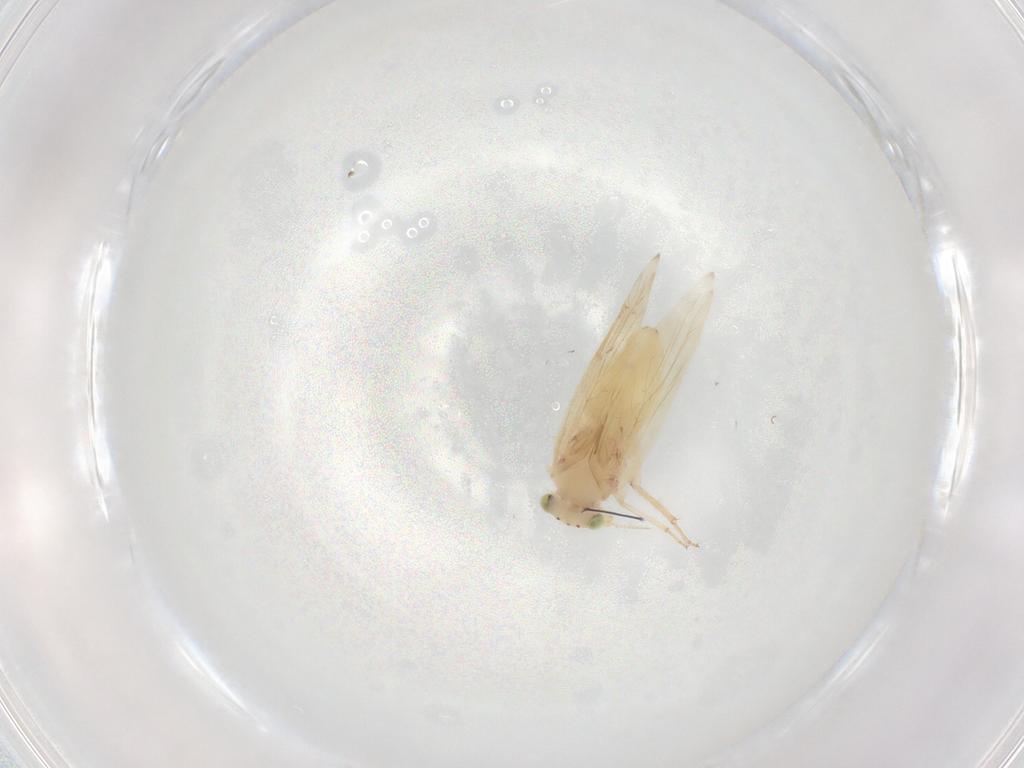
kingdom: Animalia
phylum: Arthropoda
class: Insecta
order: Psocodea
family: Lepidopsocidae
